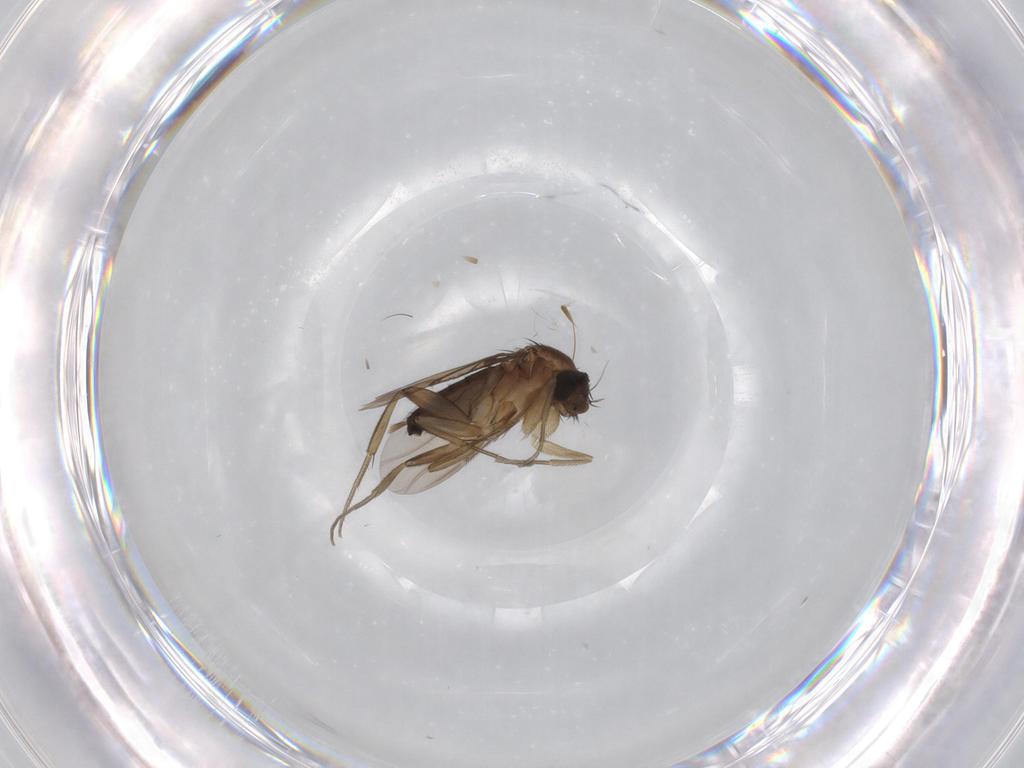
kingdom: Animalia
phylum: Arthropoda
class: Insecta
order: Diptera
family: Phoridae
